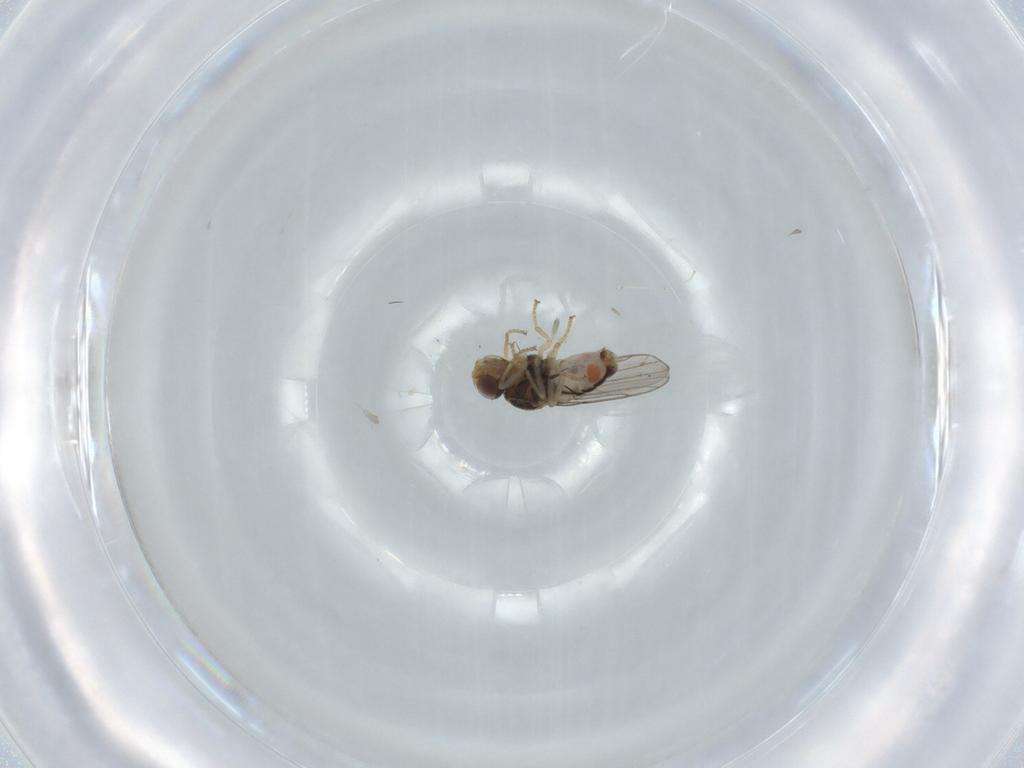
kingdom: Animalia
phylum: Arthropoda
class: Insecta
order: Diptera
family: Chloropidae
